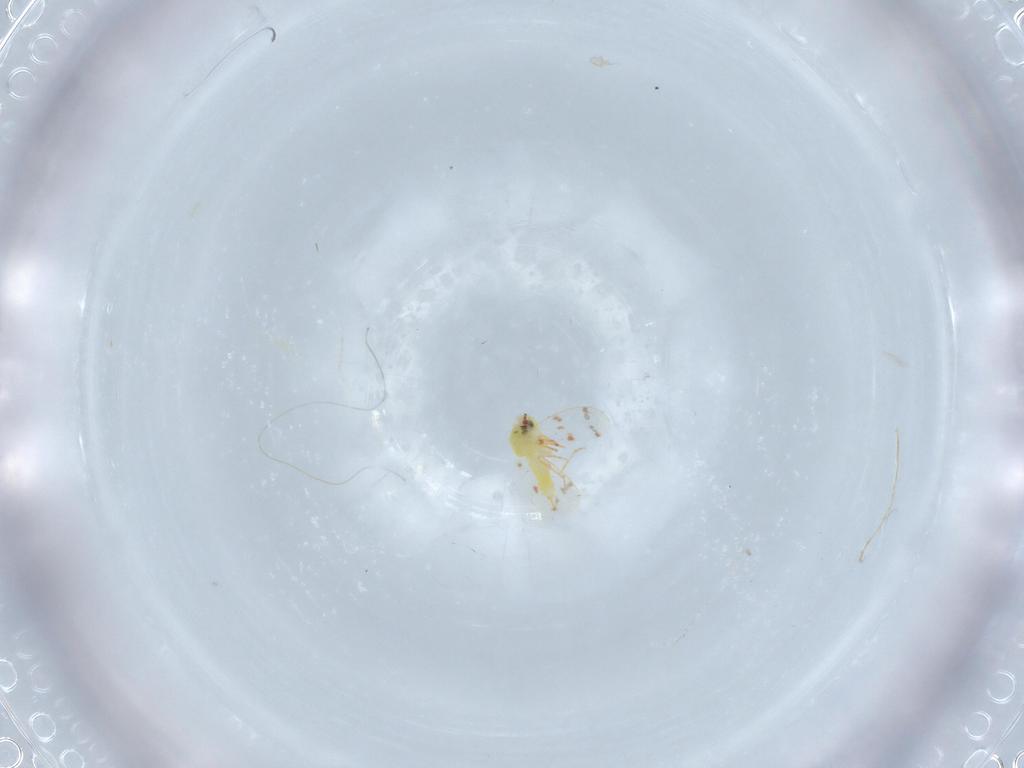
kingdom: Animalia
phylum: Arthropoda
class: Insecta
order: Hemiptera
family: Aleyrodidae
